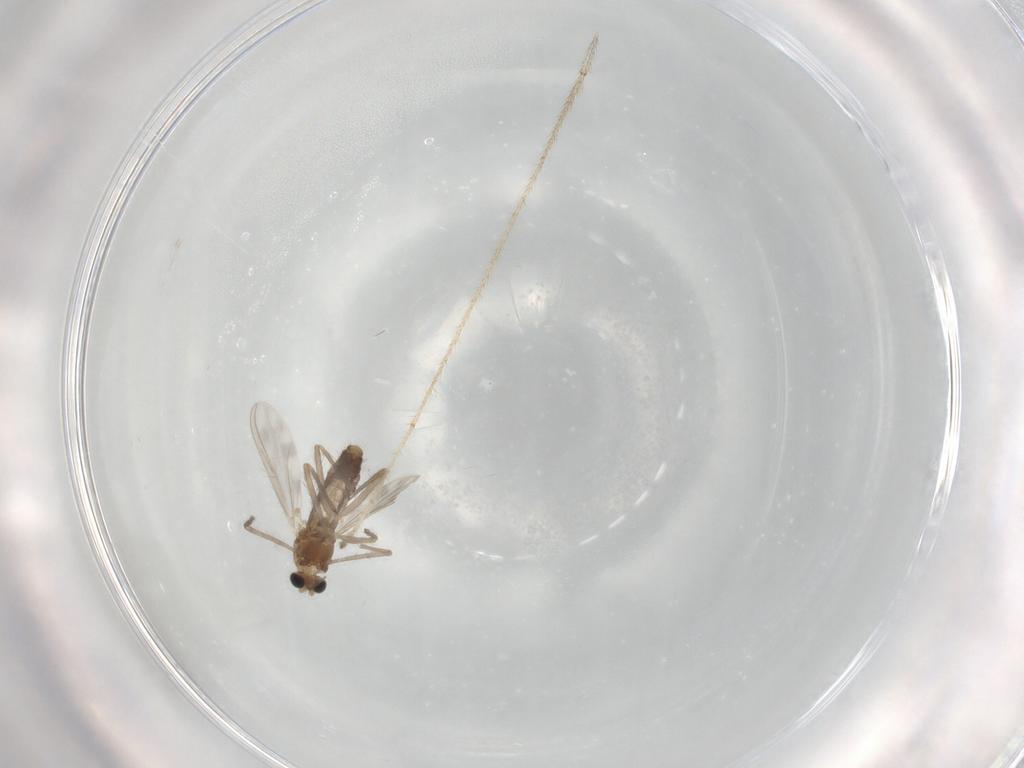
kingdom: Animalia
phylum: Arthropoda
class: Insecta
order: Diptera
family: Chironomidae
